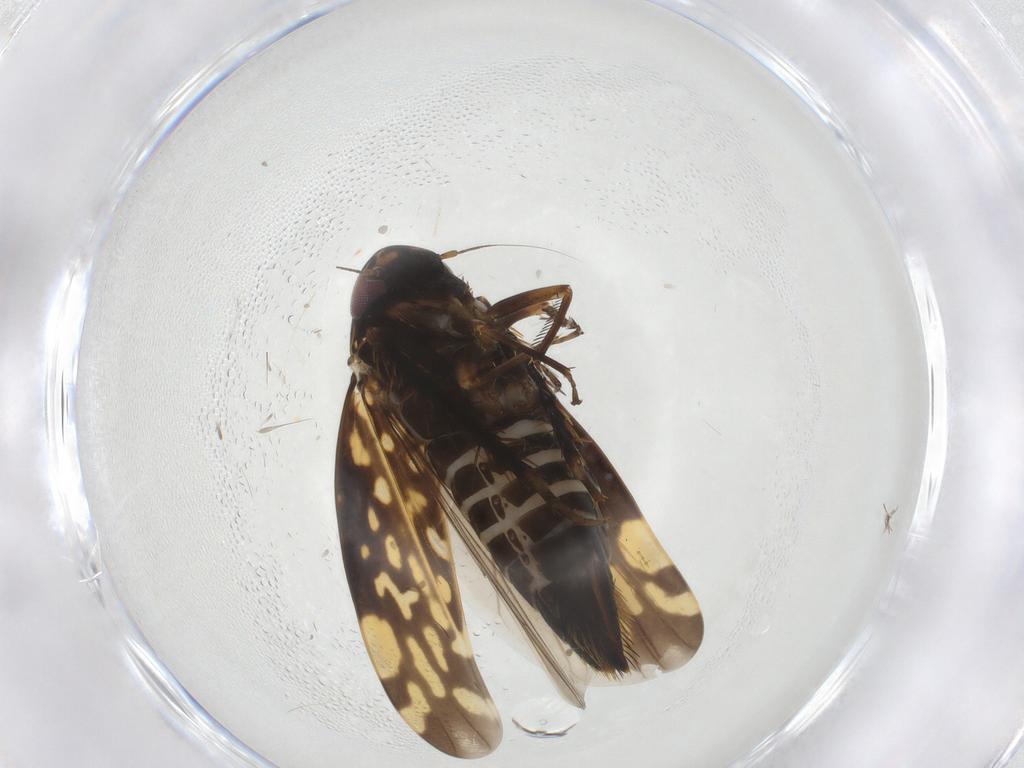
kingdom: Animalia
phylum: Arthropoda
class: Insecta
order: Hemiptera
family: Cicadellidae
